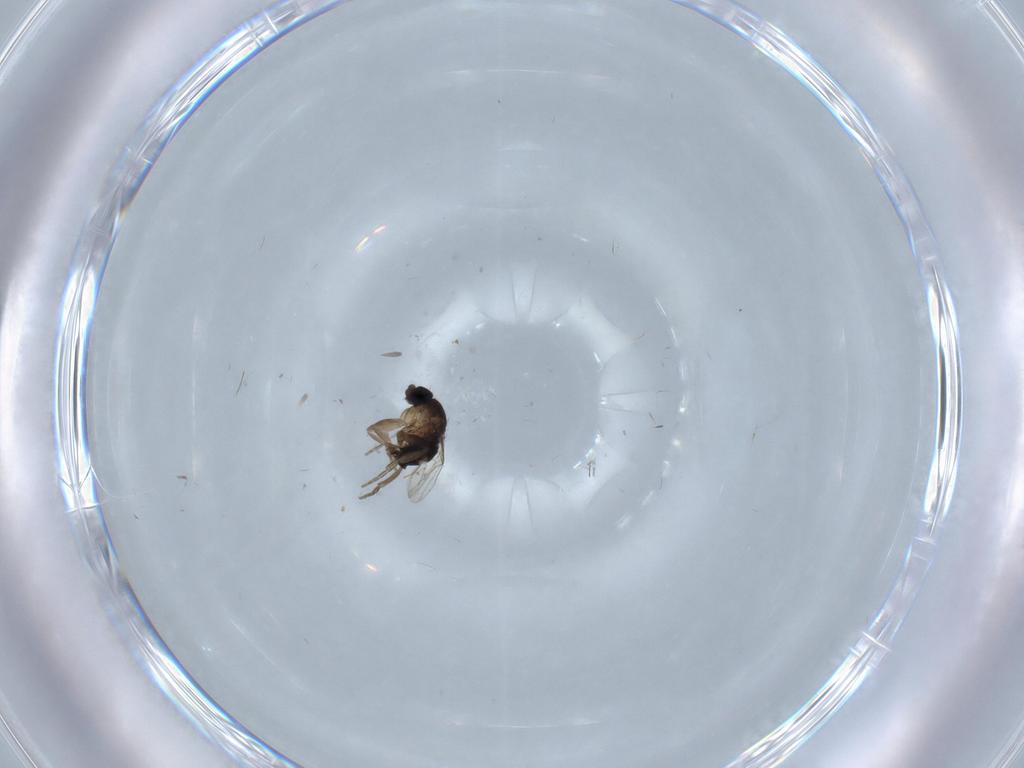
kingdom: Animalia
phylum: Arthropoda
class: Insecta
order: Diptera
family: Phoridae
